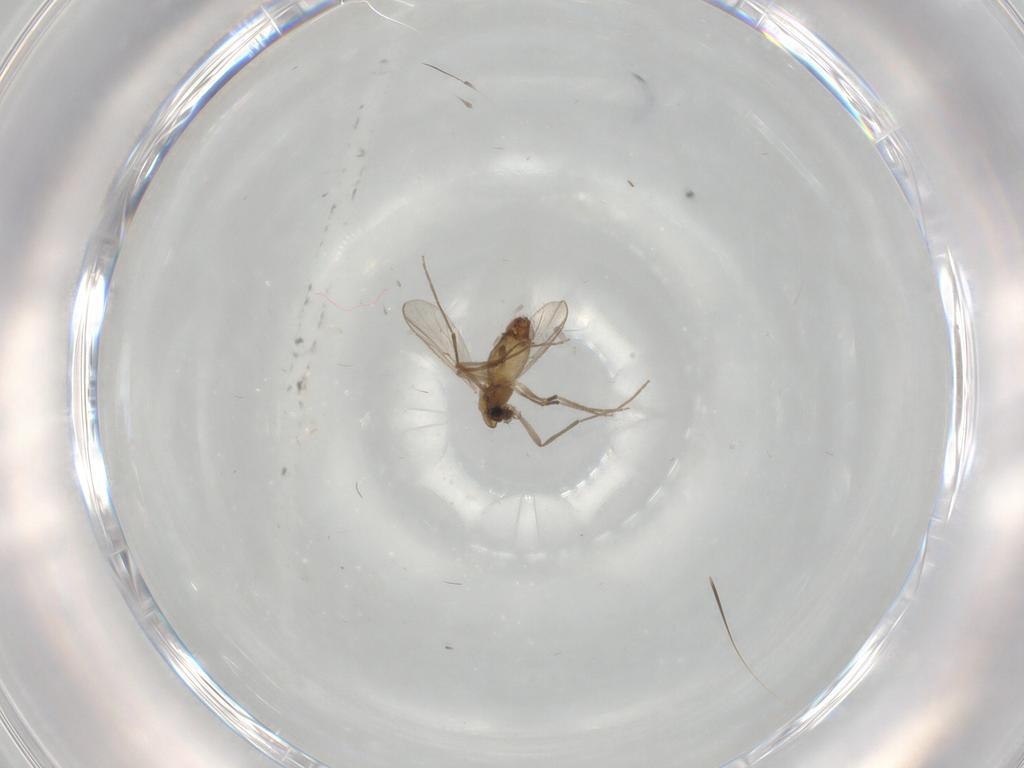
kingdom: Animalia
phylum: Arthropoda
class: Insecta
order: Diptera
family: Chironomidae
